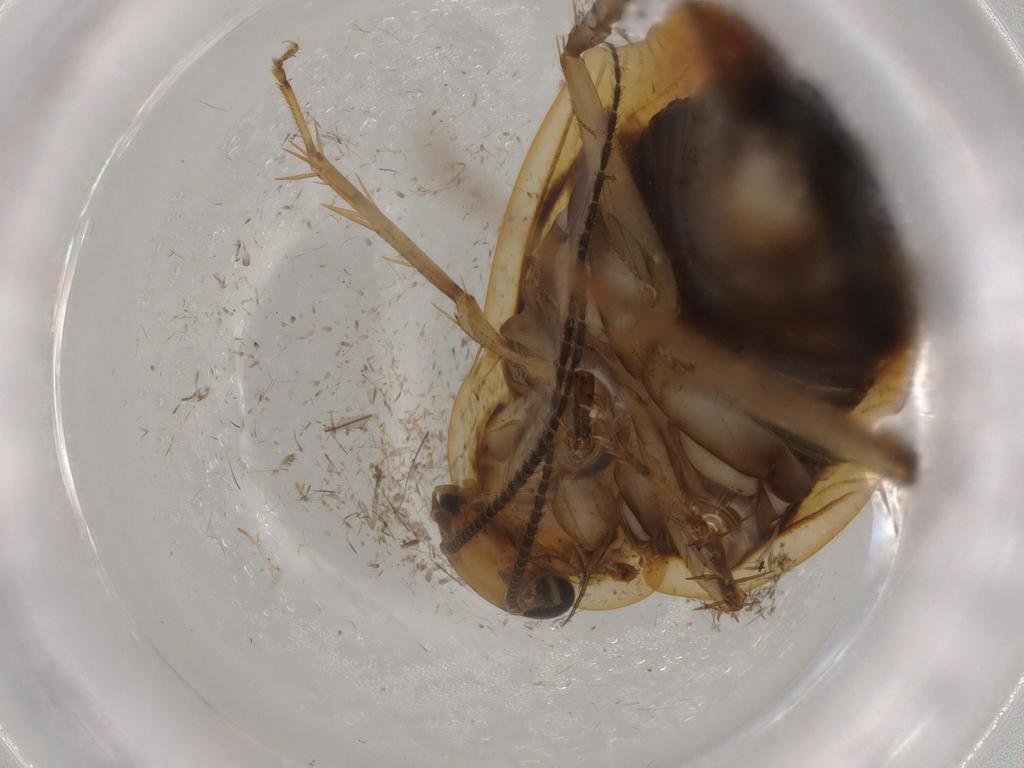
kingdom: Animalia
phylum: Arthropoda
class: Insecta
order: Blattodea
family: Ectobiidae
